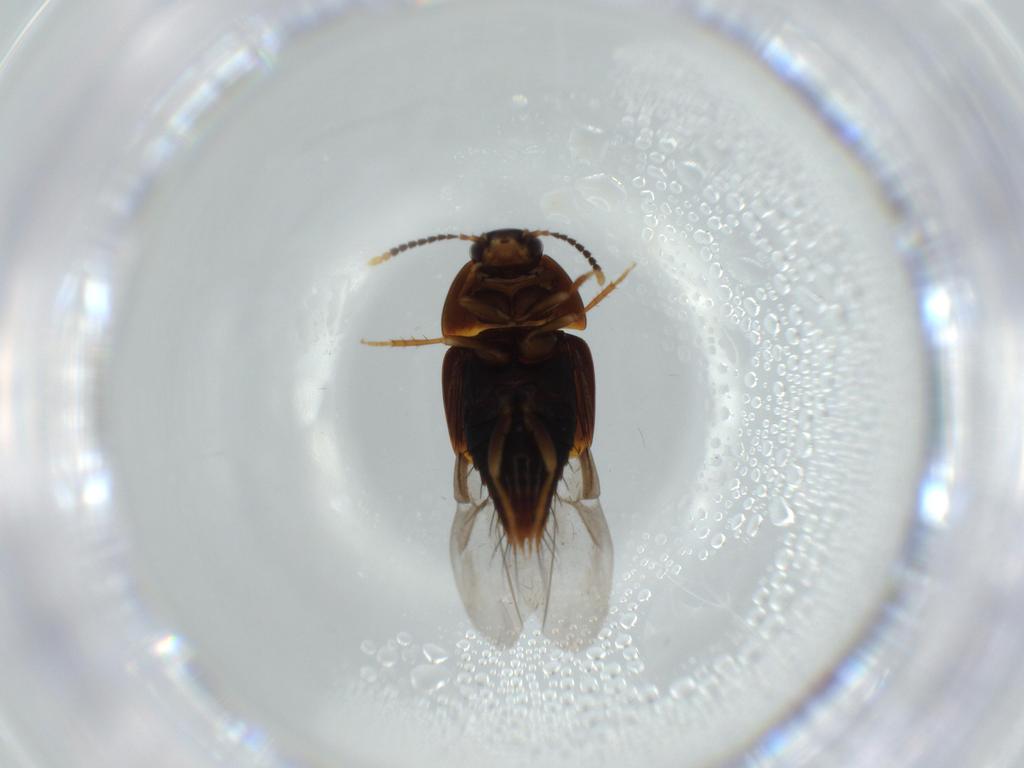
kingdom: Animalia
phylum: Arthropoda
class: Insecta
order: Coleoptera
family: Staphylinidae
